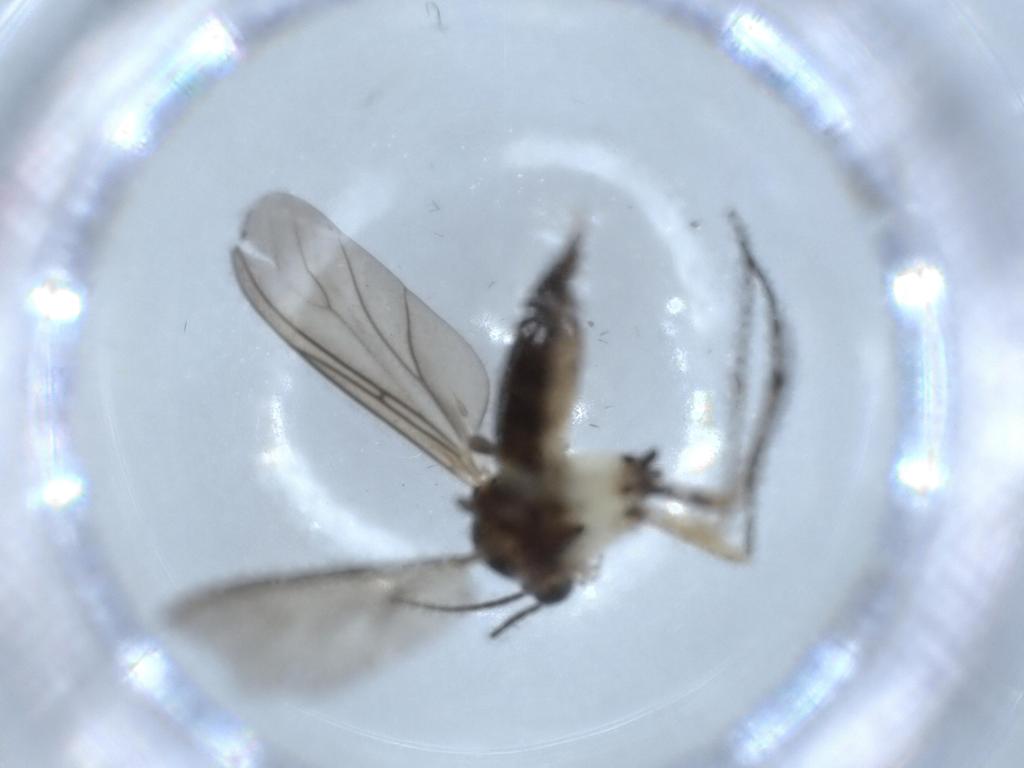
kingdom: Animalia
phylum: Arthropoda
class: Insecta
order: Diptera
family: Sciaridae
